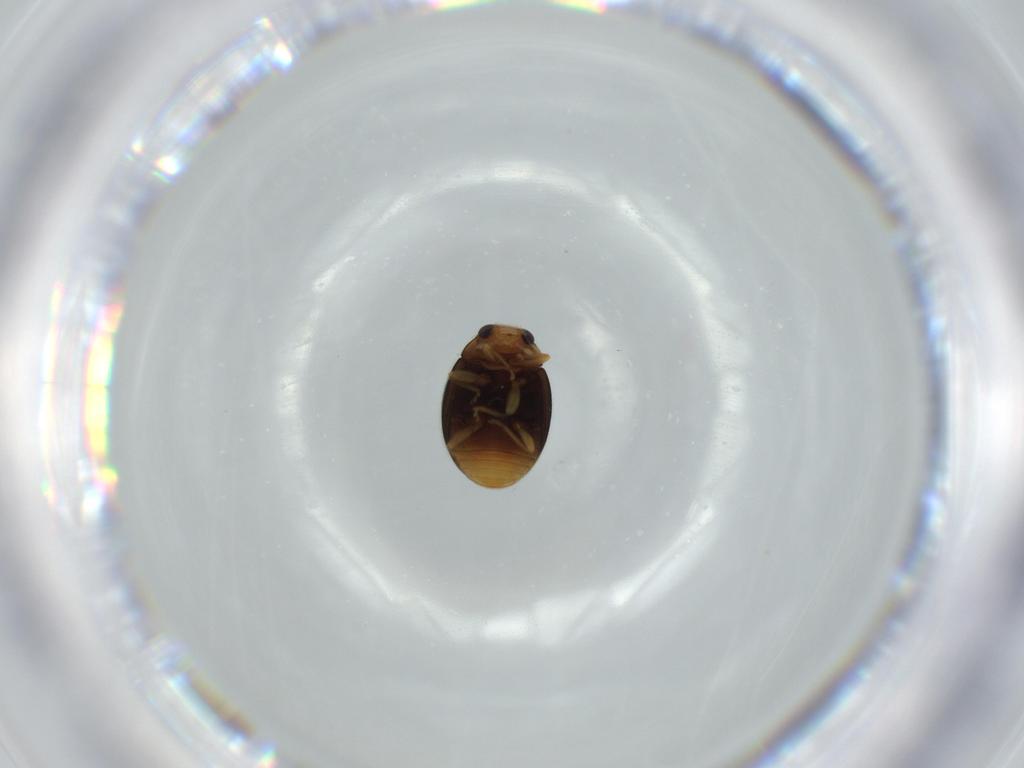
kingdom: Animalia
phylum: Arthropoda
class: Insecta
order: Coleoptera
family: Coccinellidae
